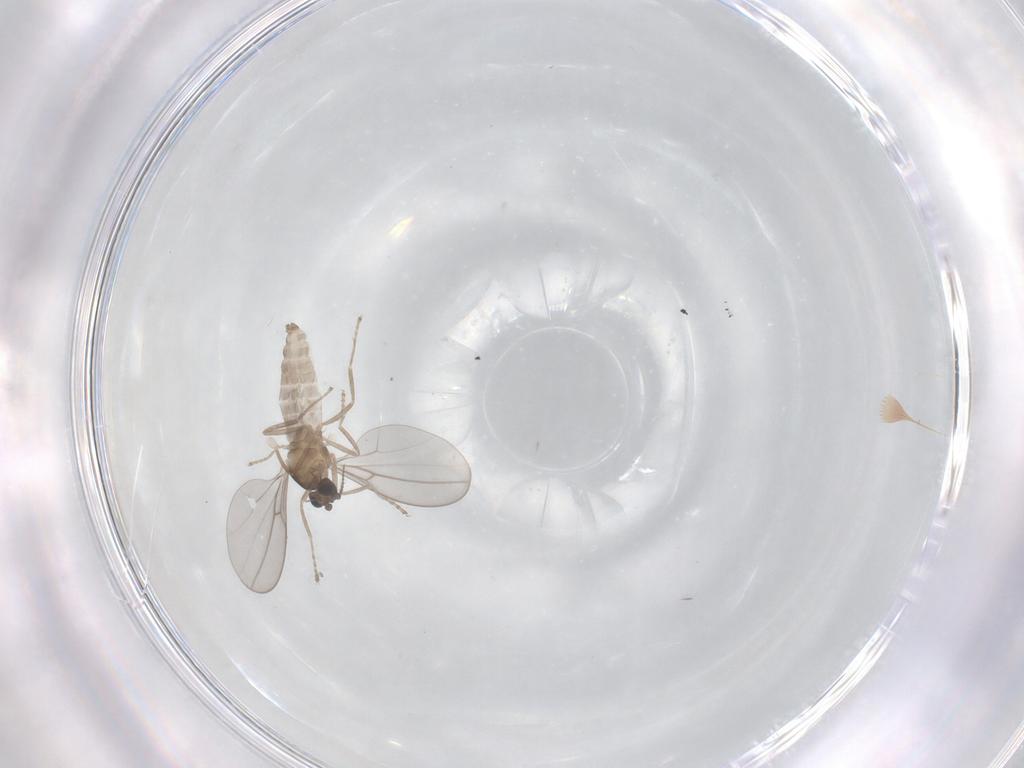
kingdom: Animalia
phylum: Arthropoda
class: Insecta
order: Diptera
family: Cecidomyiidae
